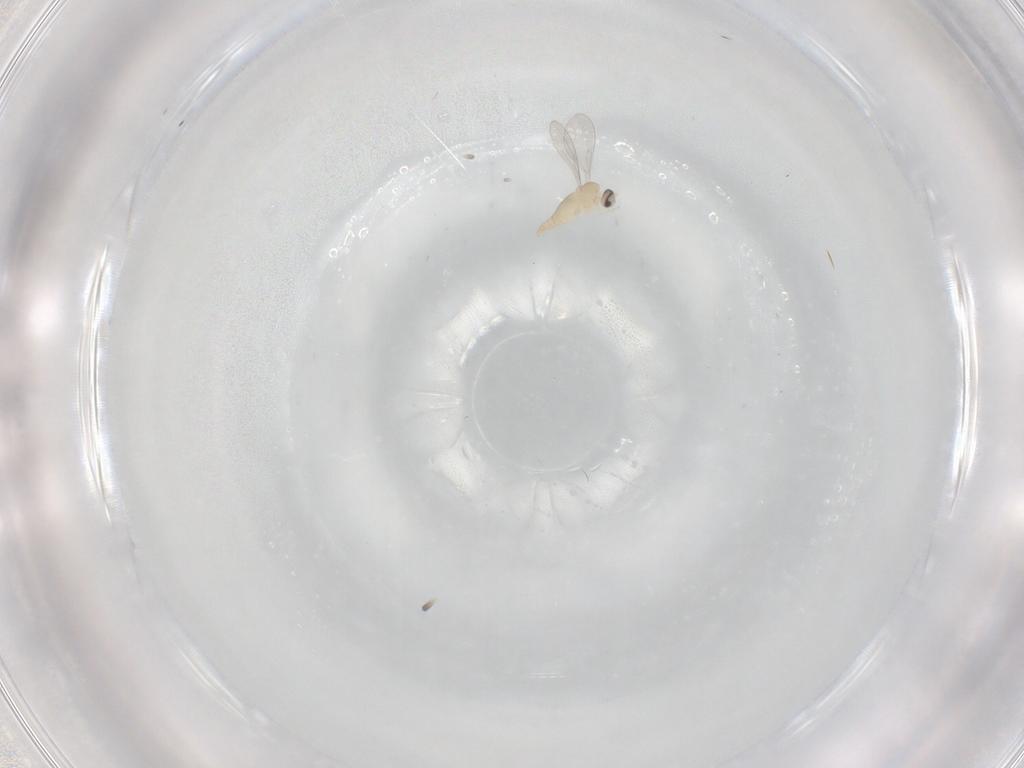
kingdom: Animalia
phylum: Arthropoda
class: Insecta
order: Diptera
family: Cecidomyiidae
